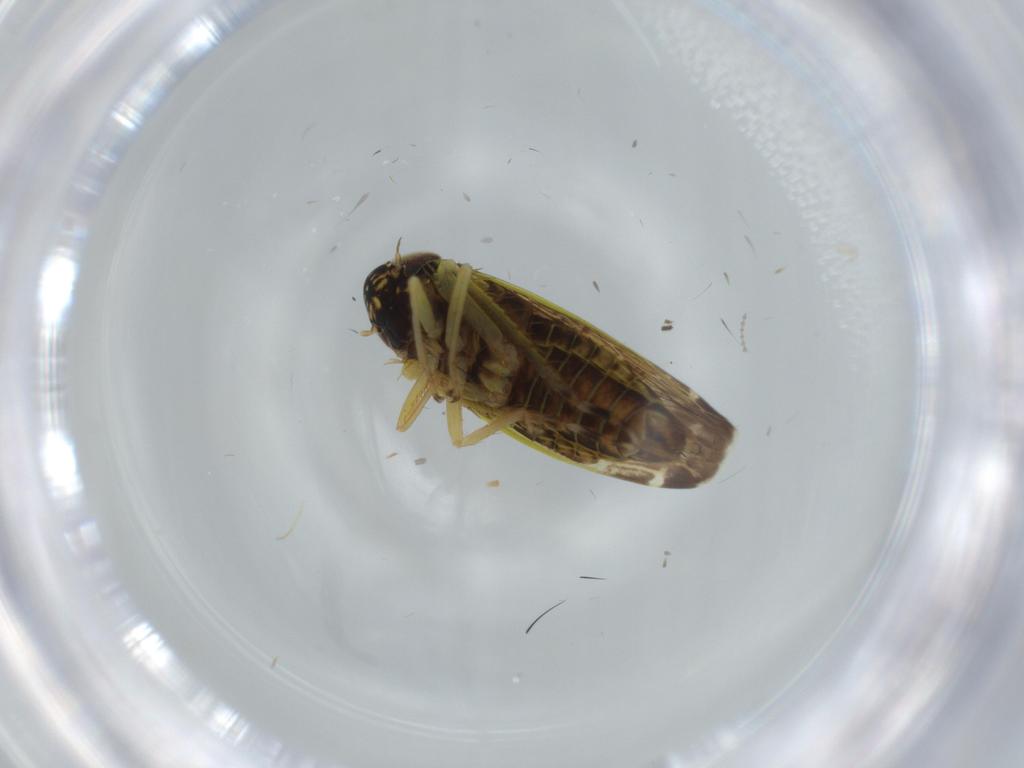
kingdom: Animalia
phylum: Arthropoda
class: Insecta
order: Hemiptera
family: Cicadellidae
